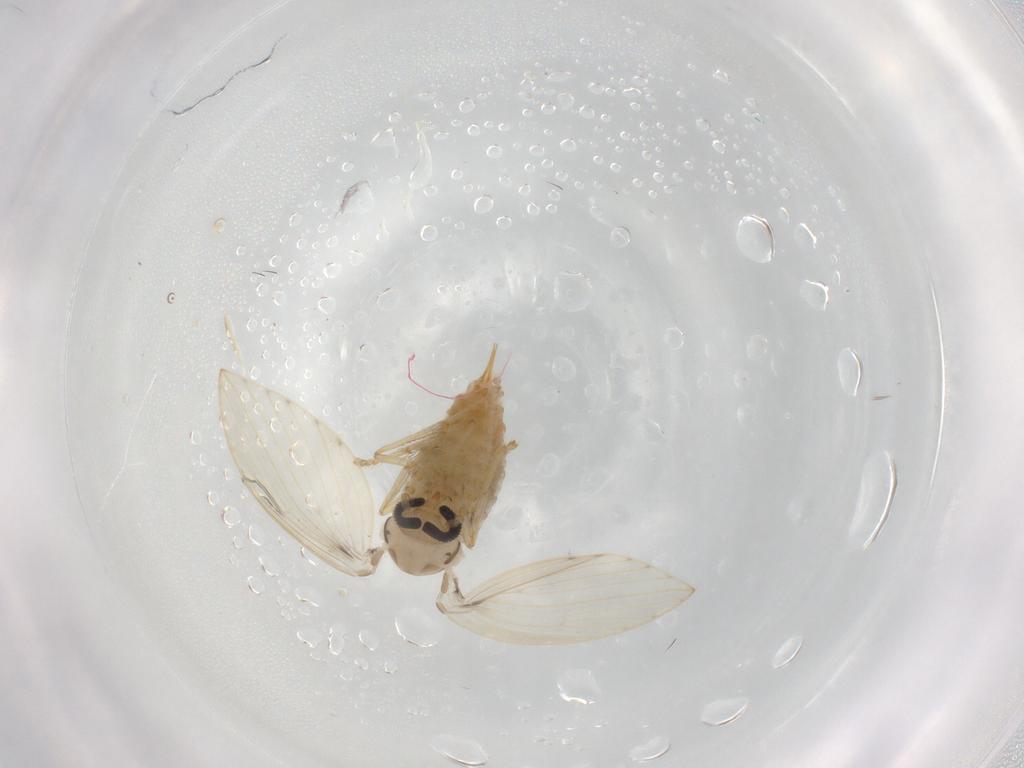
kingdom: Animalia
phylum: Arthropoda
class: Insecta
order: Diptera
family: Psychodidae
